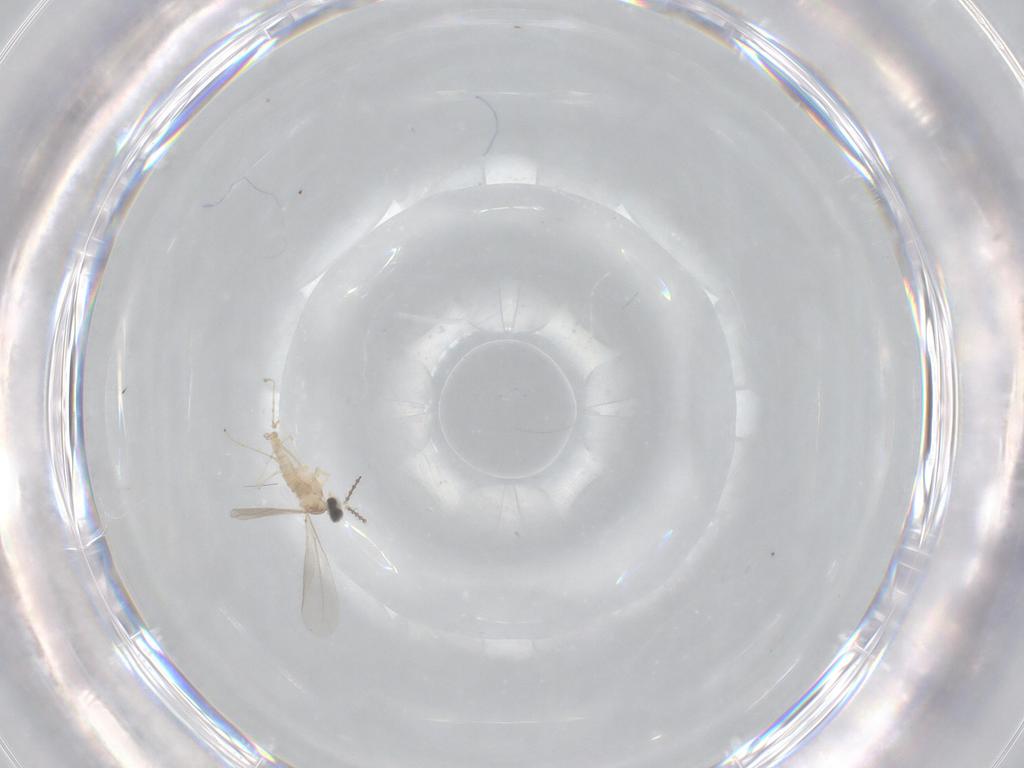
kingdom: Animalia
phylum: Arthropoda
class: Insecta
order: Diptera
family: Cecidomyiidae
